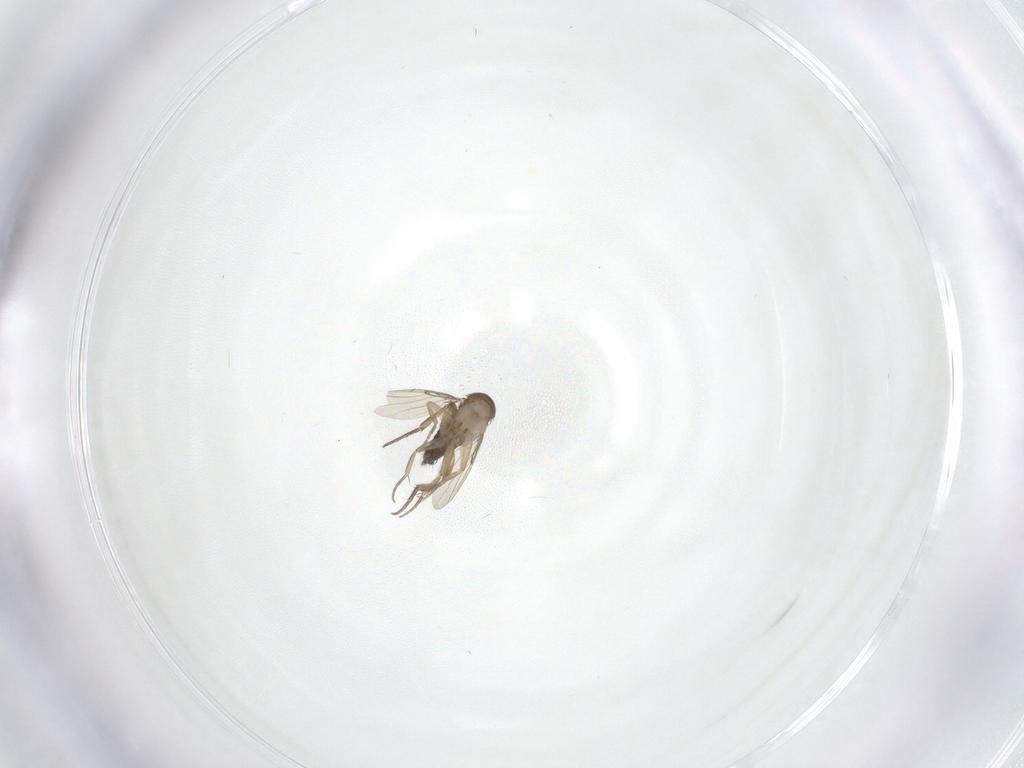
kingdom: Animalia
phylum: Arthropoda
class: Insecta
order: Diptera
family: Phoridae
